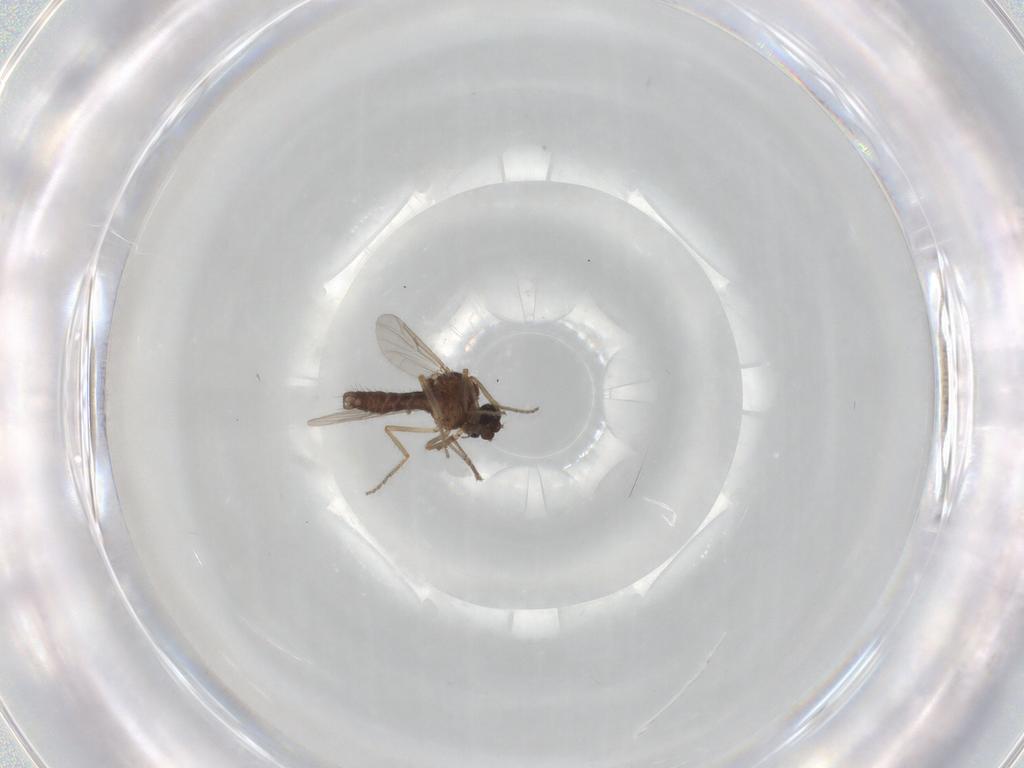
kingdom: Animalia
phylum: Arthropoda
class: Insecta
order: Diptera
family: Ceratopogonidae
